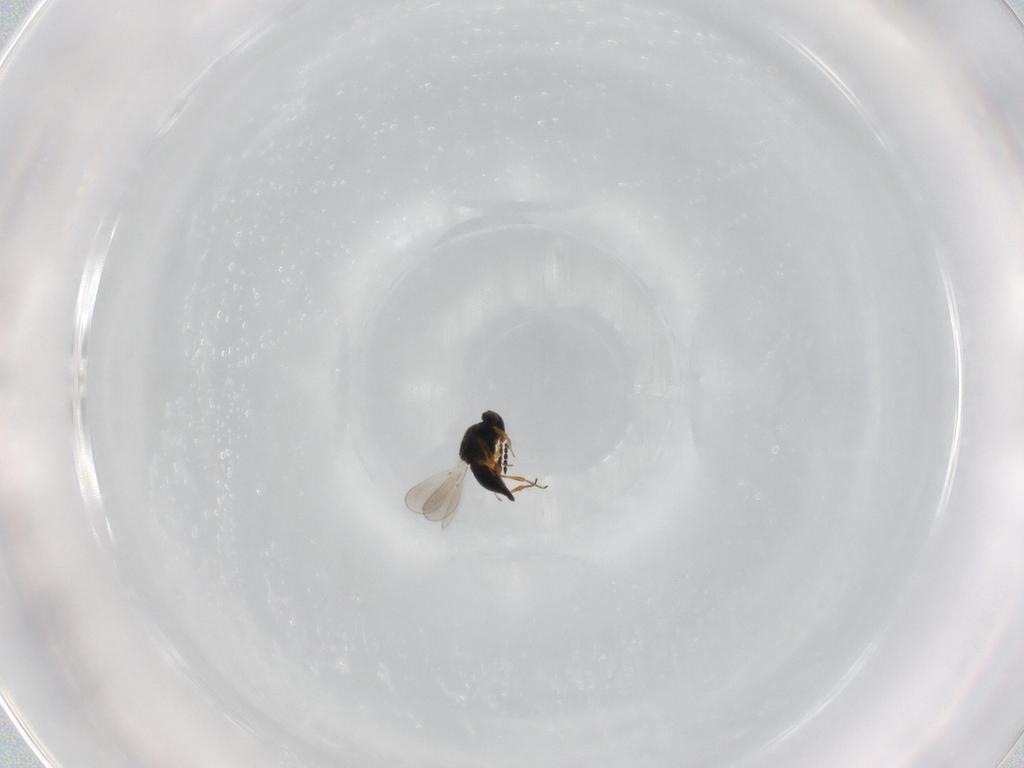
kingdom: Animalia
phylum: Arthropoda
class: Insecta
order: Hymenoptera
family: Platygastridae
